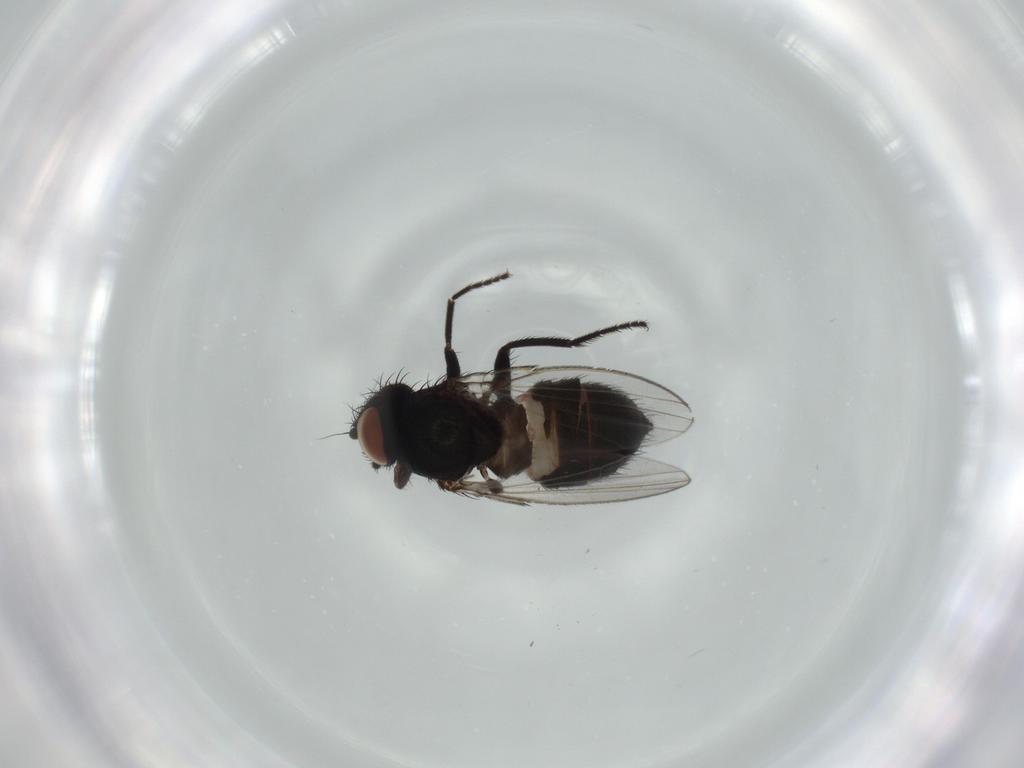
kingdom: Animalia
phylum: Arthropoda
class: Insecta
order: Diptera
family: Milichiidae
